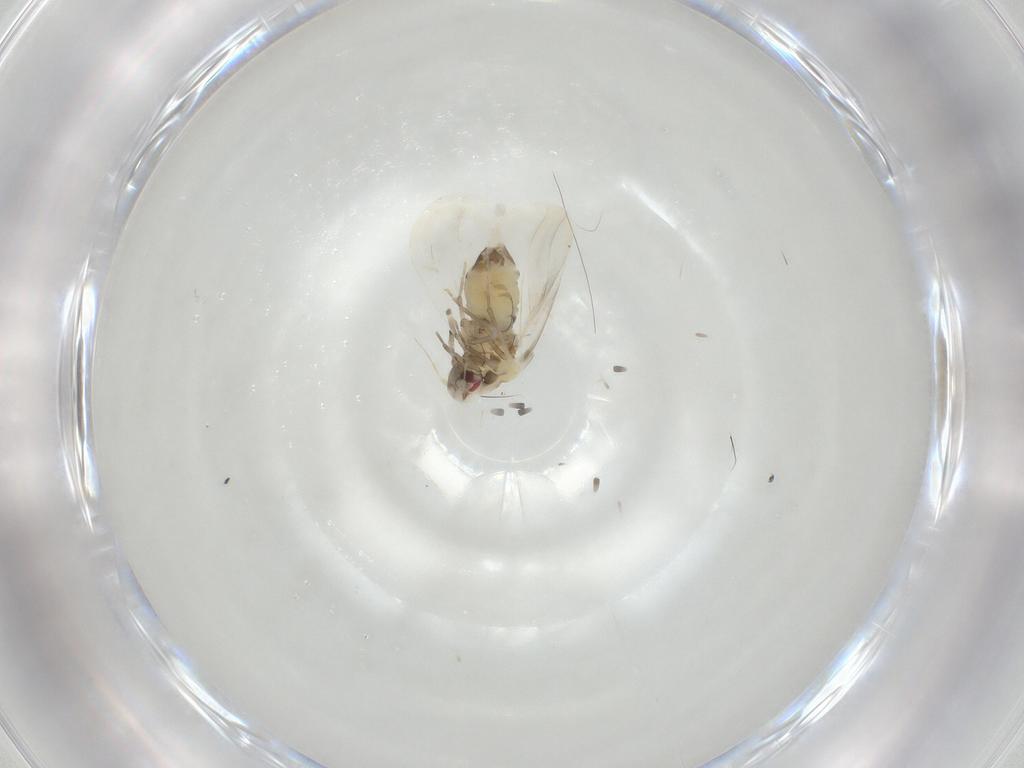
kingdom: Animalia
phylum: Arthropoda
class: Insecta
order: Hemiptera
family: Aleyrodidae
